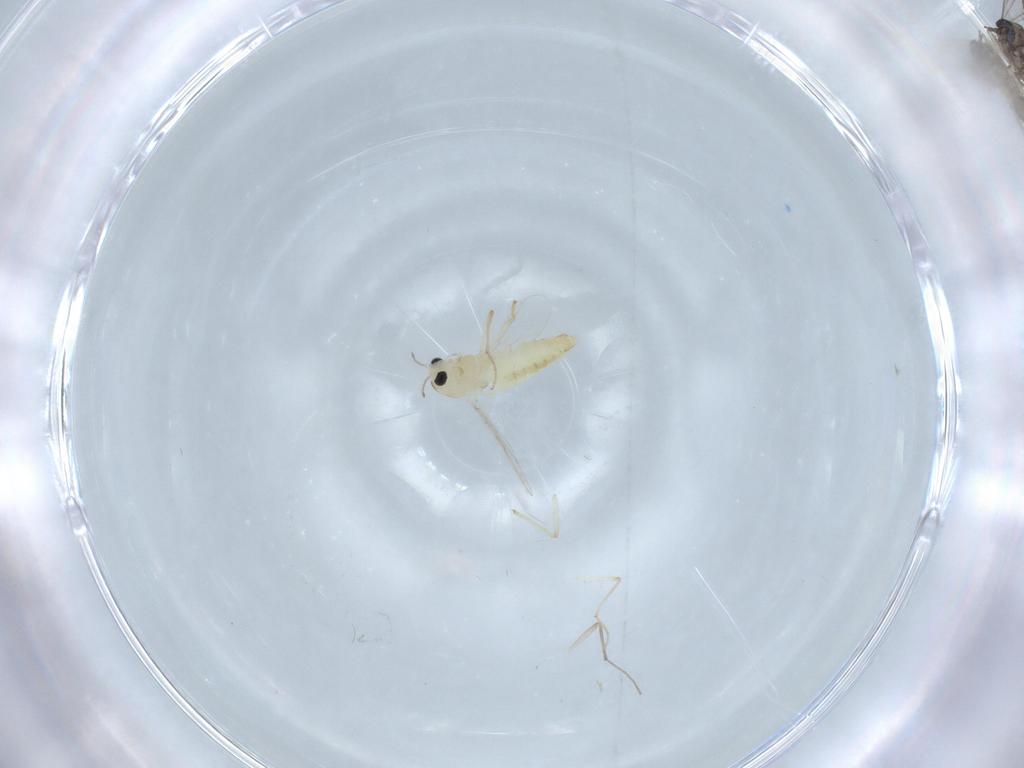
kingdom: Animalia
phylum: Arthropoda
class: Insecta
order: Diptera
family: Chironomidae
